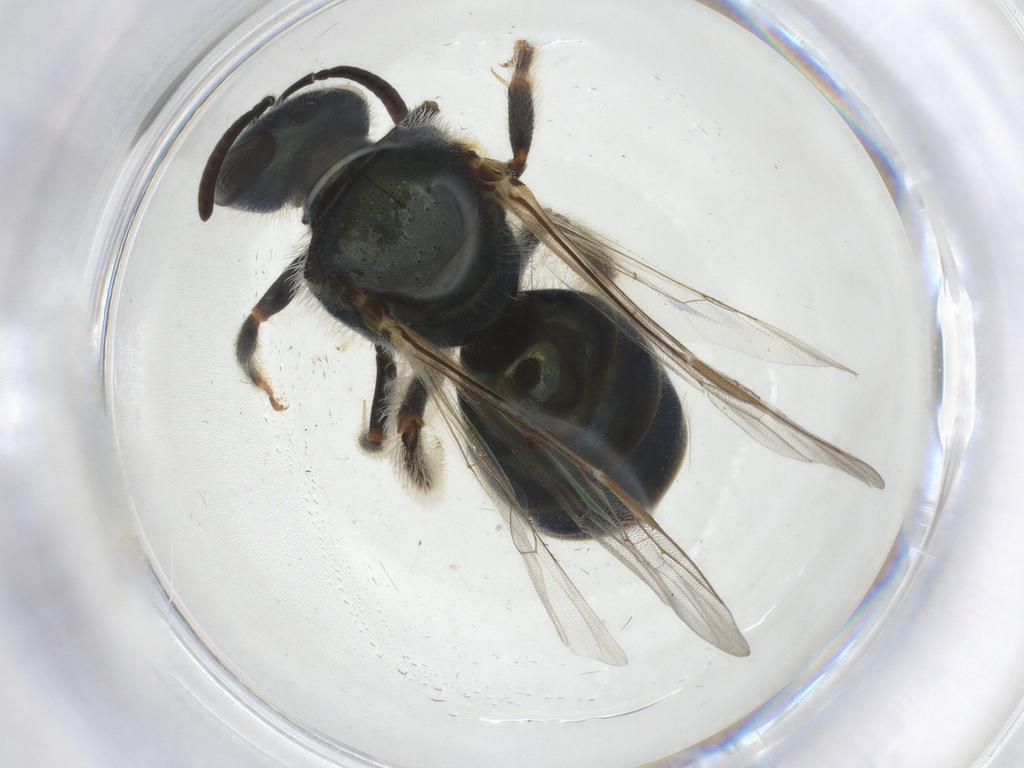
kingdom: Animalia
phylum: Arthropoda
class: Insecta
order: Hymenoptera
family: Halictidae
